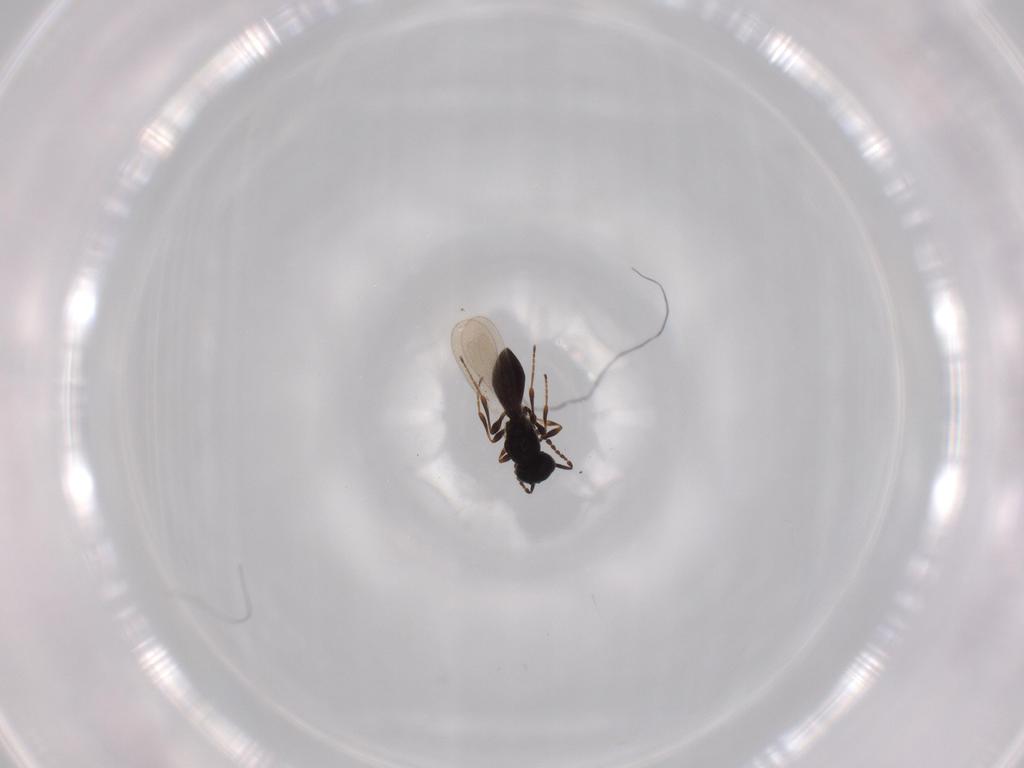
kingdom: Animalia
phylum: Arthropoda
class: Insecta
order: Hymenoptera
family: Platygastridae
